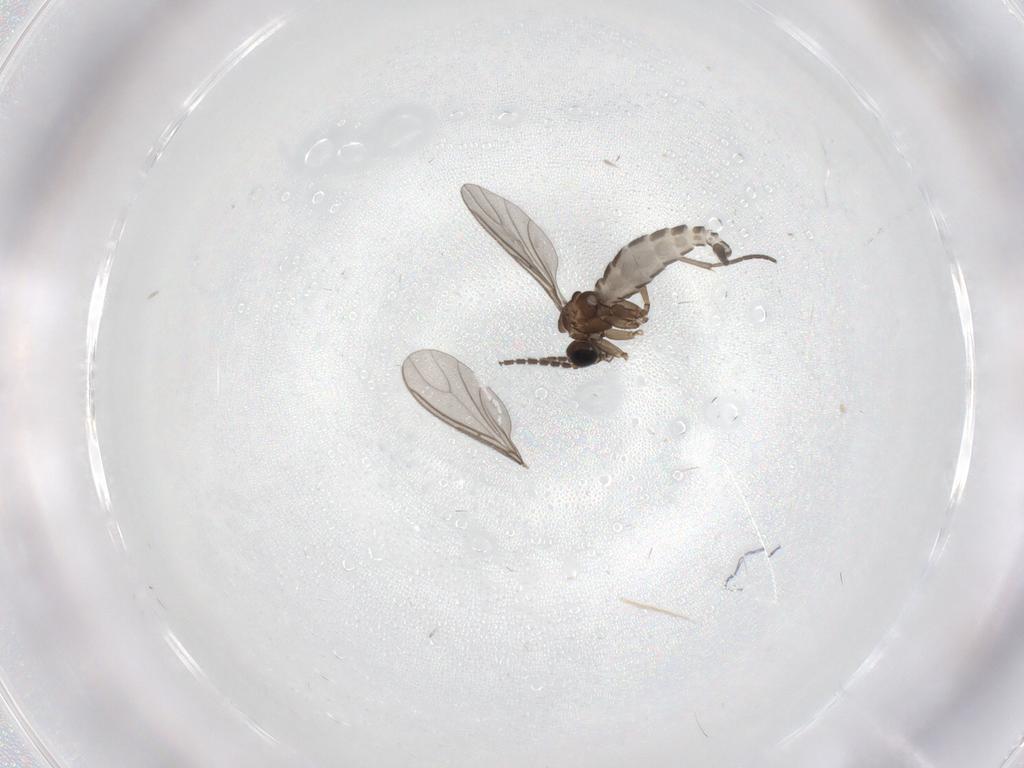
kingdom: Animalia
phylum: Arthropoda
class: Insecta
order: Diptera
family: Sciaridae
